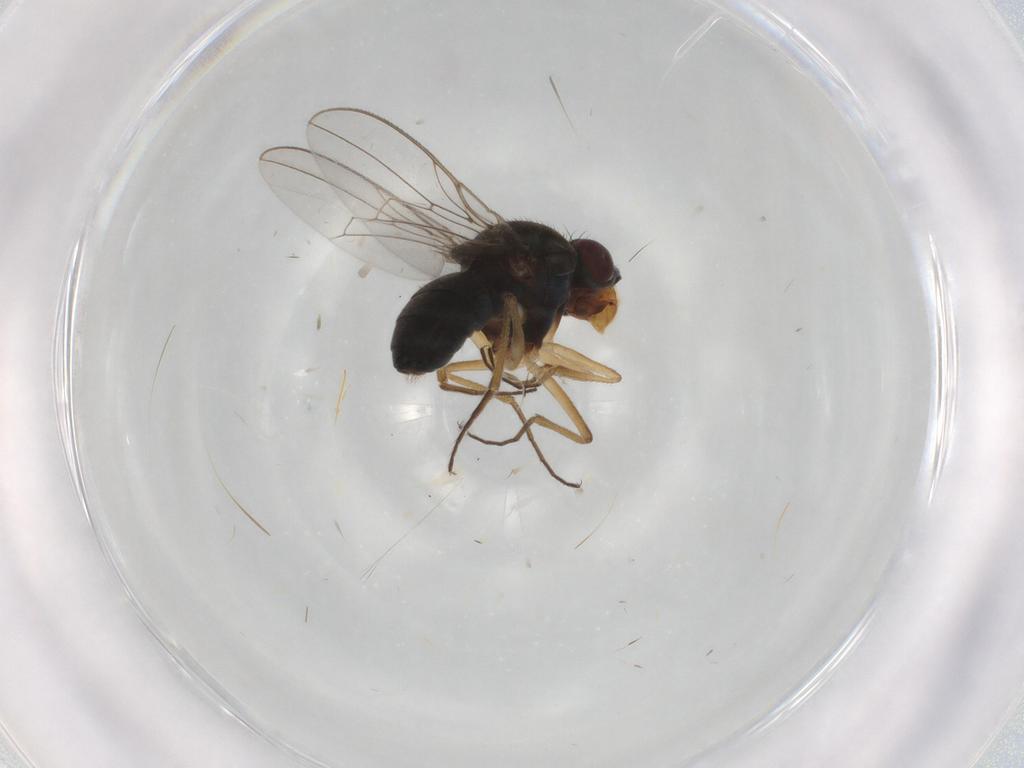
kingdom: Animalia
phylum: Arthropoda
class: Insecta
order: Diptera
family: Ephydridae
